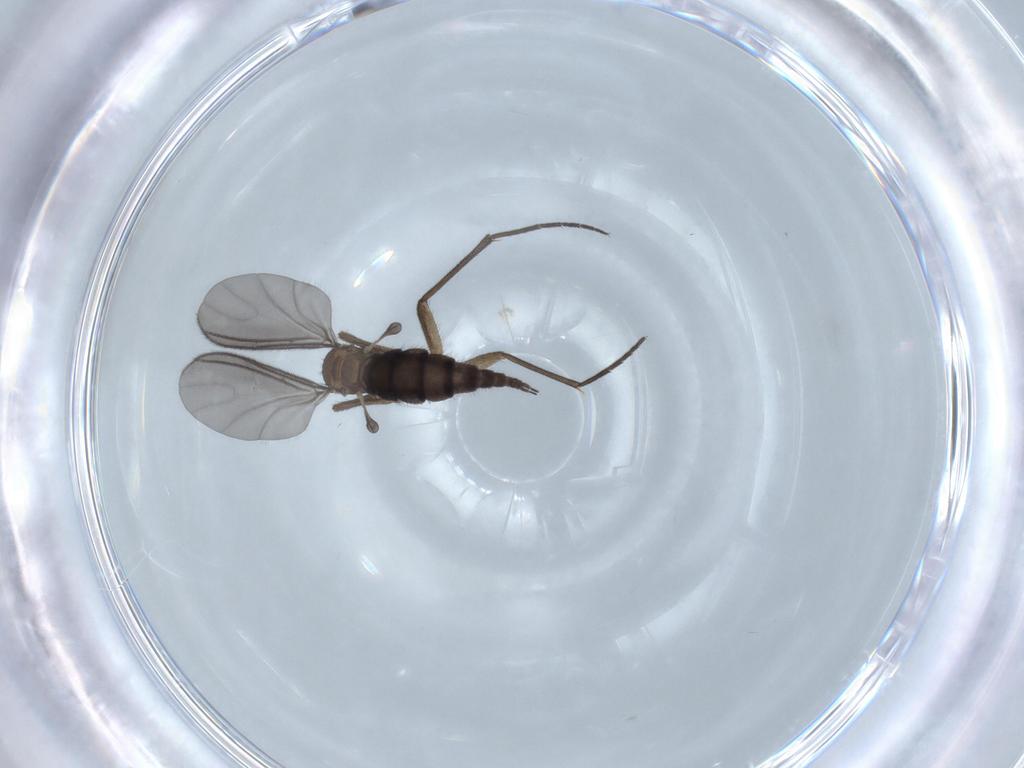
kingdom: Animalia
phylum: Arthropoda
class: Insecta
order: Diptera
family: Sciaridae
